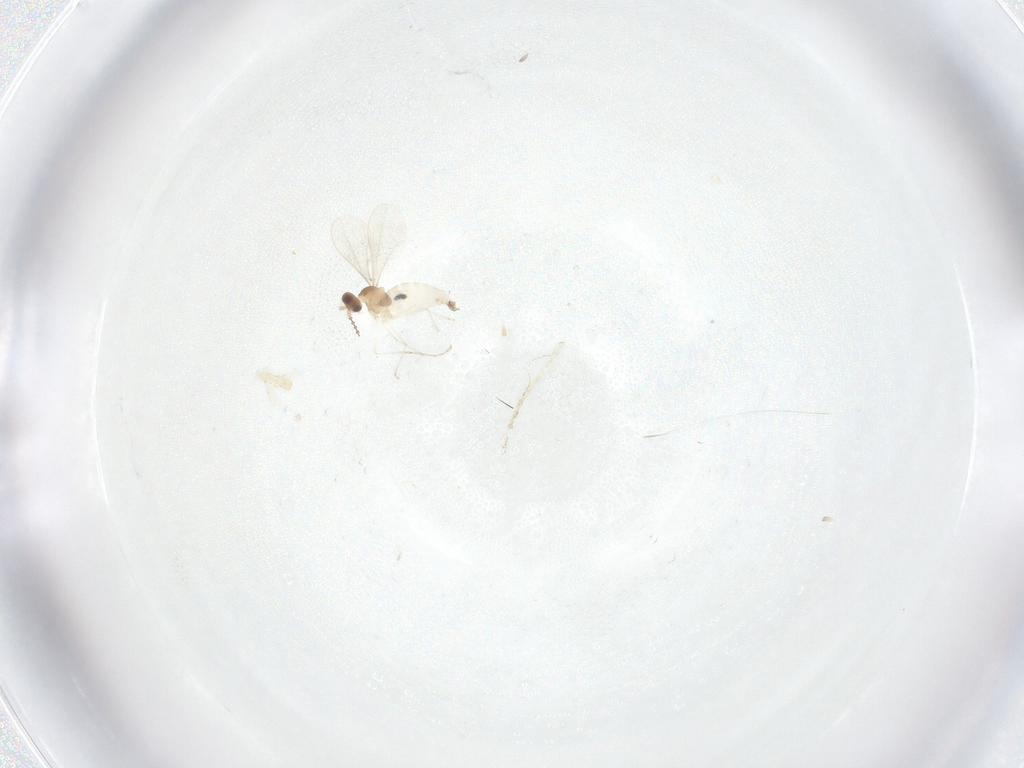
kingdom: Animalia
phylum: Arthropoda
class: Insecta
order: Diptera
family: Cecidomyiidae
